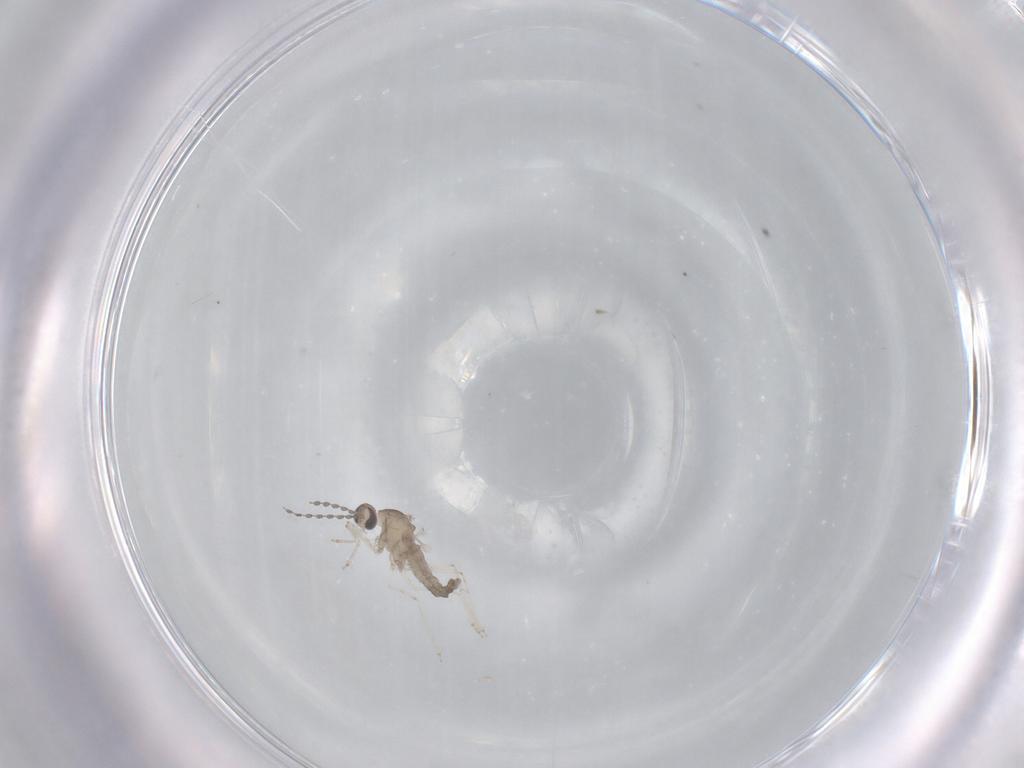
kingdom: Animalia
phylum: Arthropoda
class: Insecta
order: Diptera
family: Cecidomyiidae
